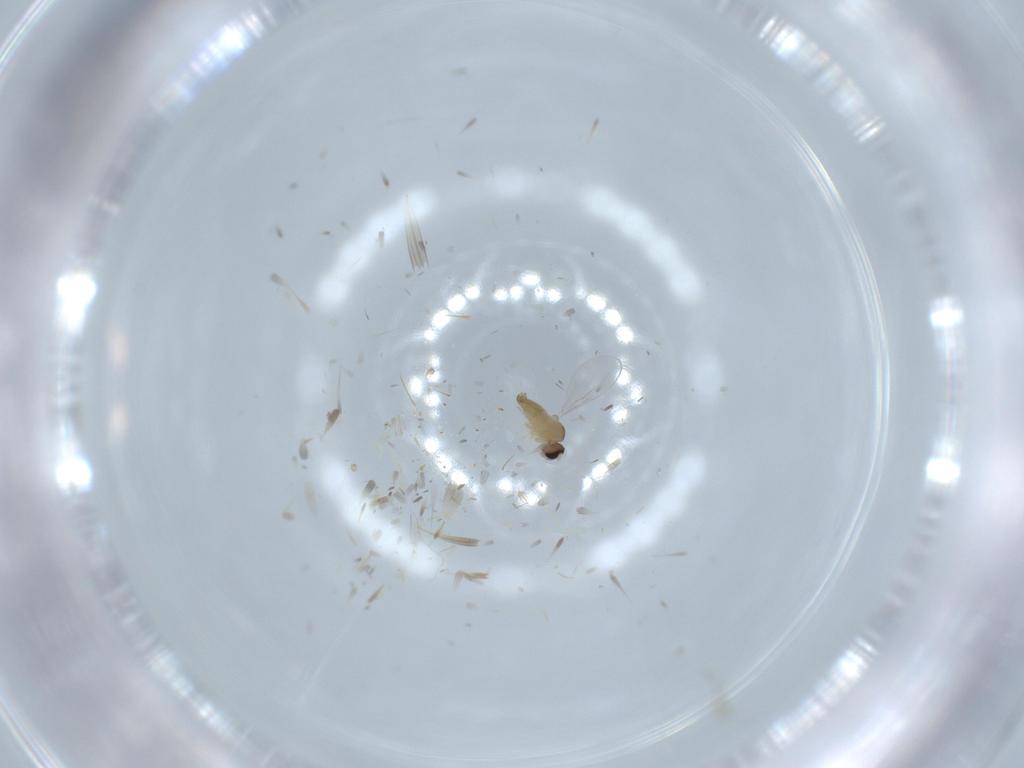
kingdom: Animalia
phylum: Arthropoda
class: Insecta
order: Diptera
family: Cecidomyiidae
